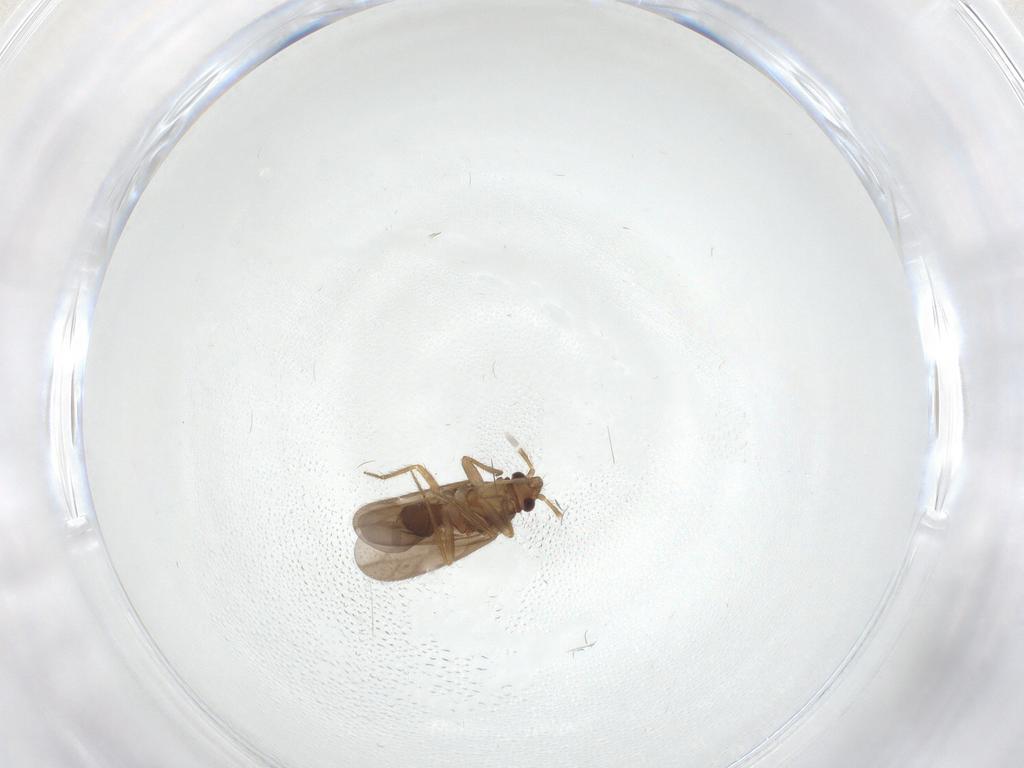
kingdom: Animalia
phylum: Arthropoda
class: Insecta
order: Hemiptera
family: Ceratocombidae
